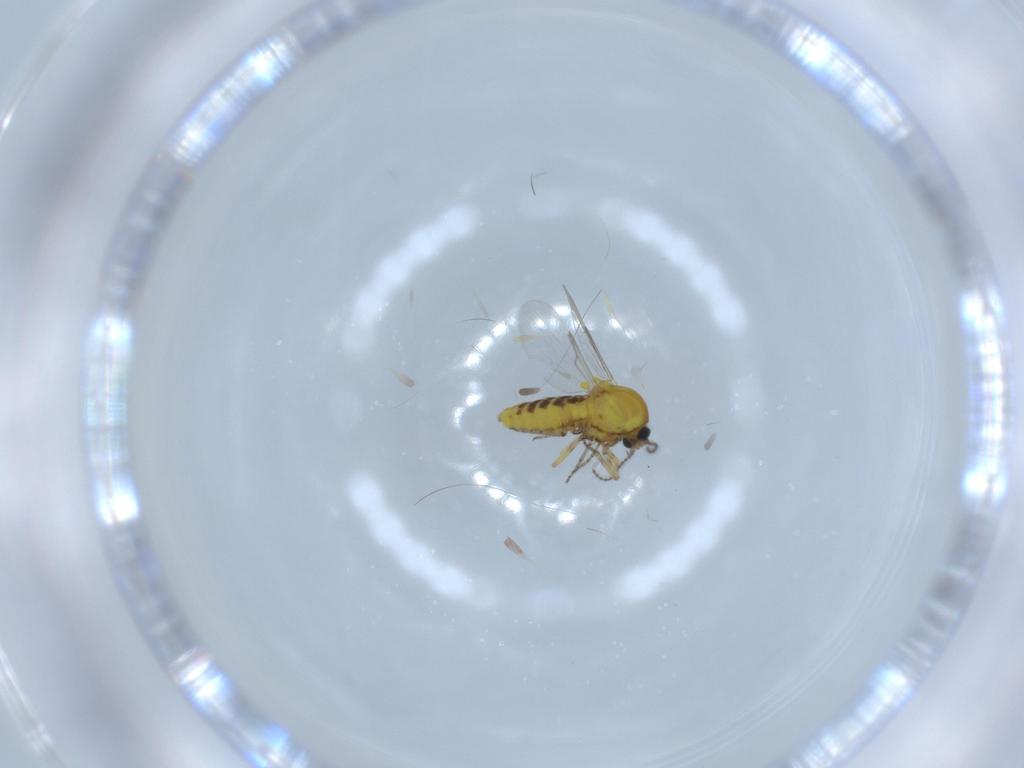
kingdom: Animalia
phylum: Arthropoda
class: Insecta
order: Diptera
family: Ceratopogonidae
